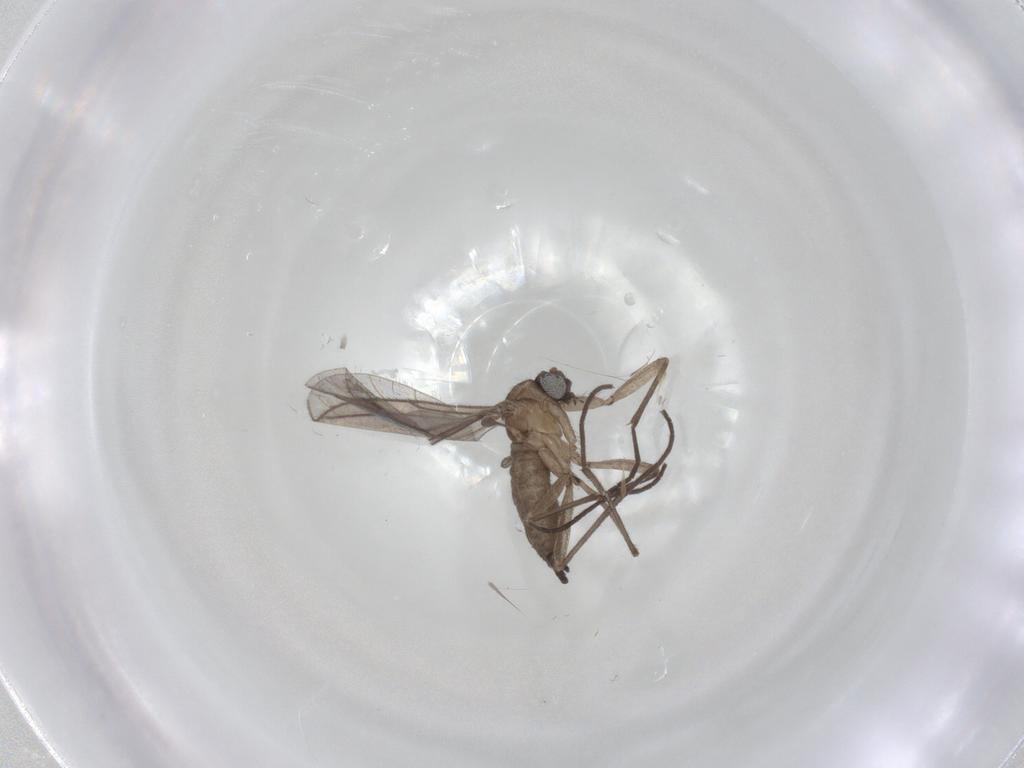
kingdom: Animalia
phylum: Arthropoda
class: Insecta
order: Diptera
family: Sciaridae
